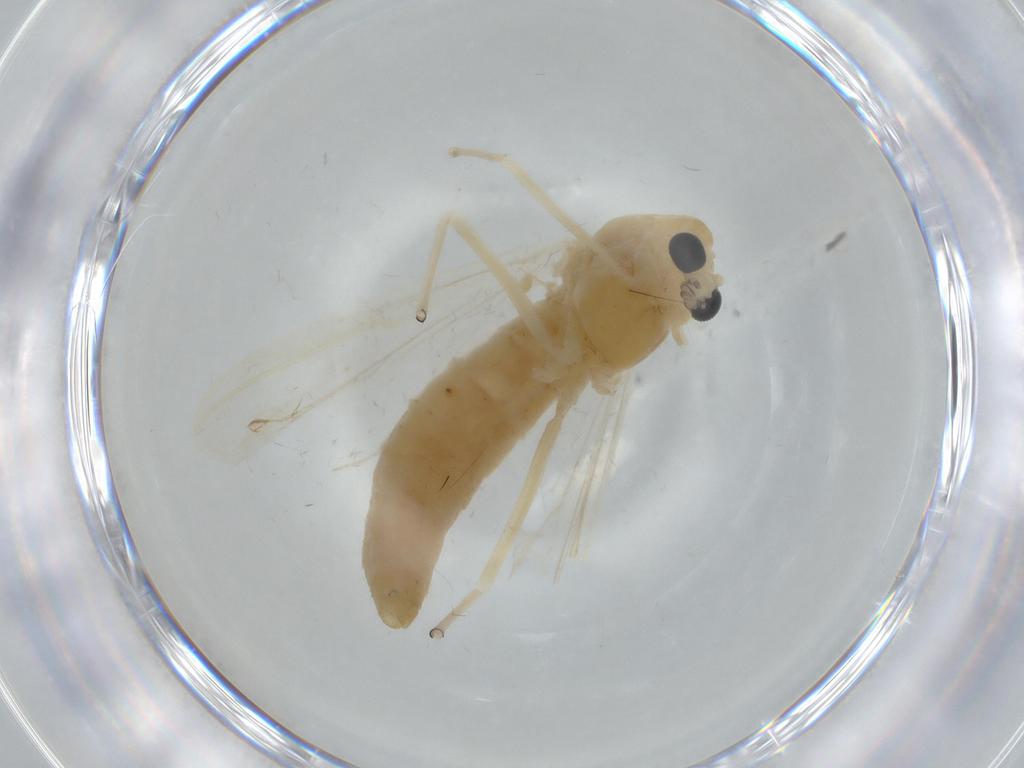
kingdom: Animalia
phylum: Arthropoda
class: Insecta
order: Diptera
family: Chironomidae
